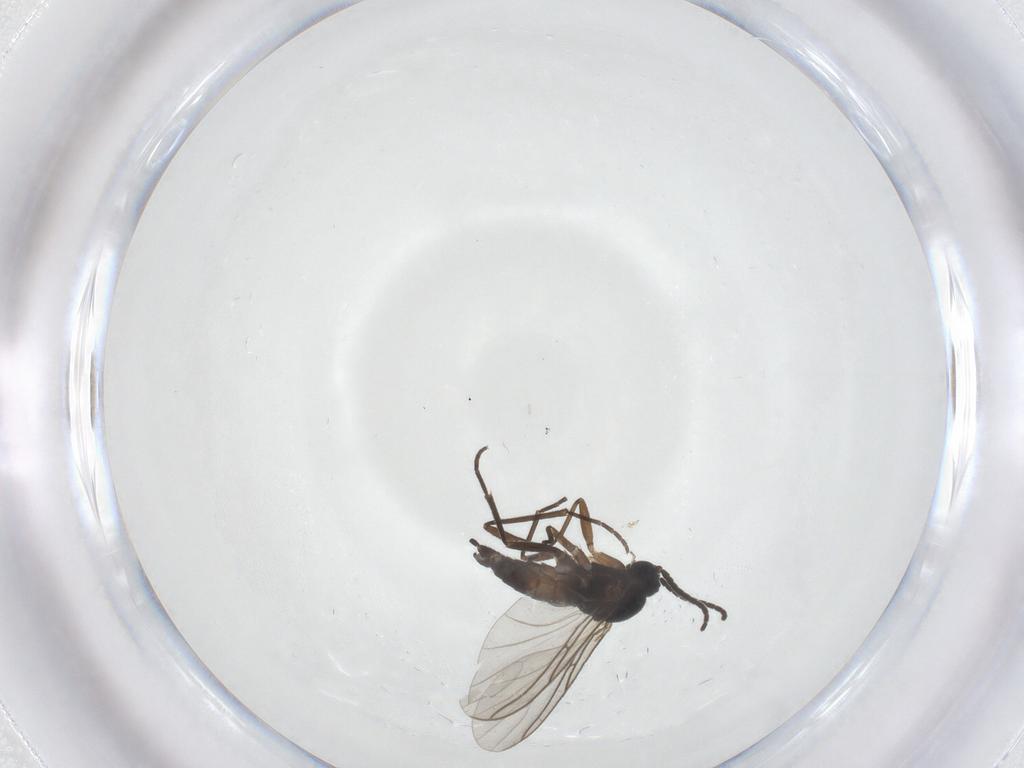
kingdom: Animalia
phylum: Arthropoda
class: Insecta
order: Diptera
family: Sciaridae
